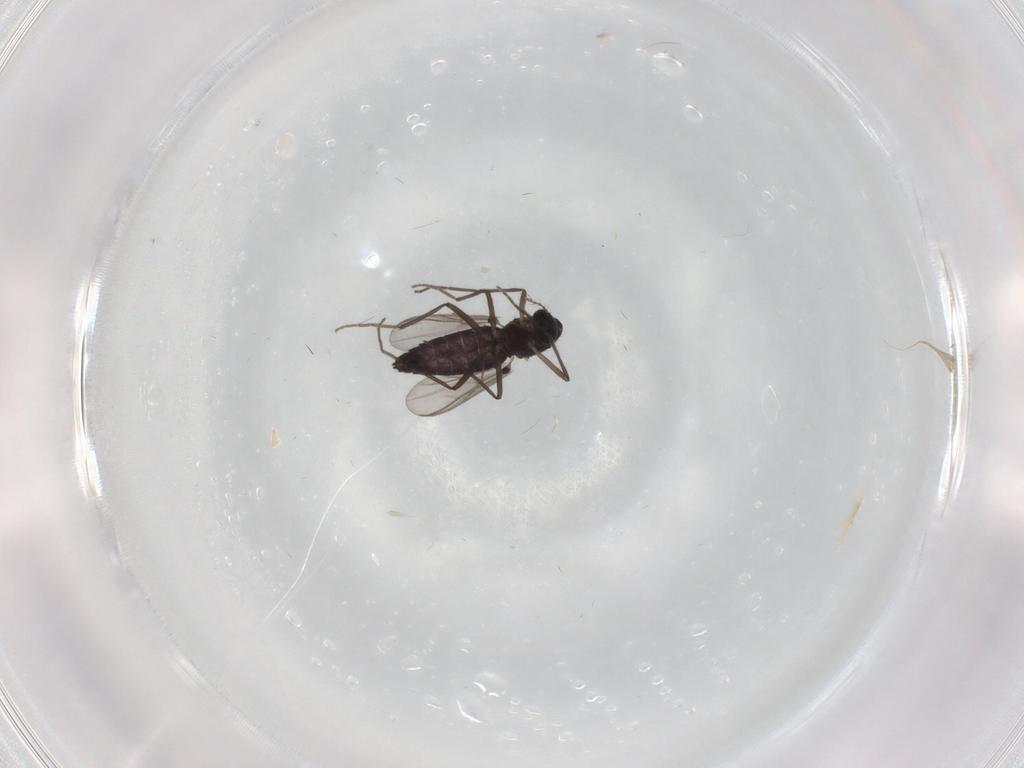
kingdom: Animalia
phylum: Arthropoda
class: Insecta
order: Diptera
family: Chironomidae
